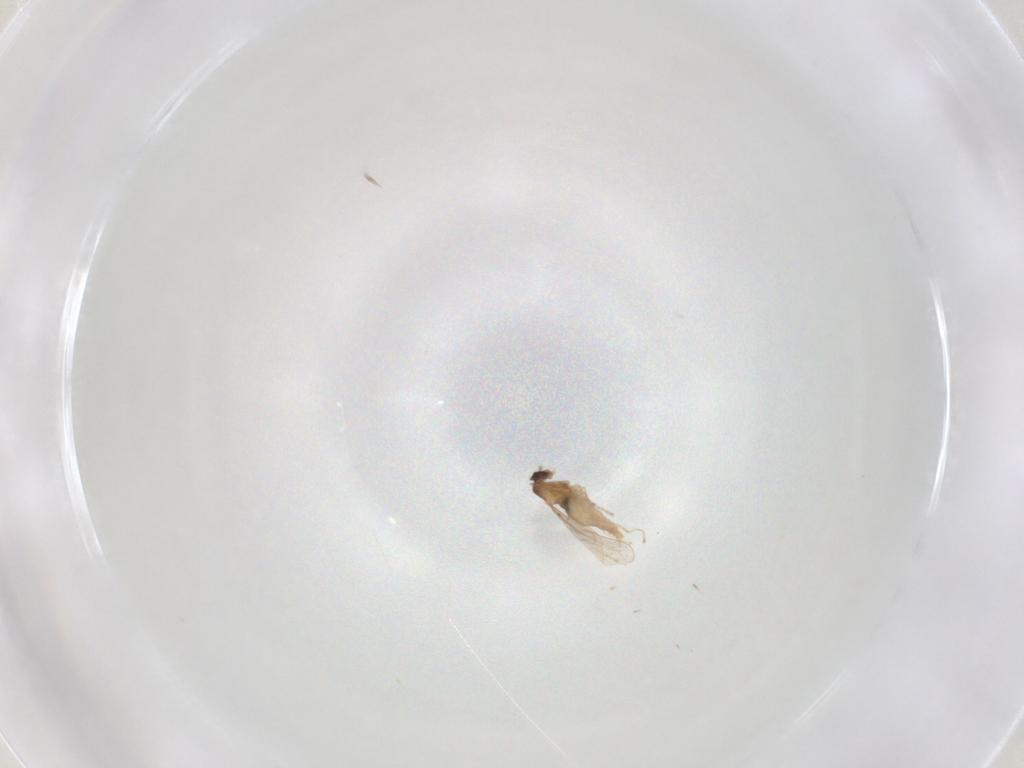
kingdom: Animalia
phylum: Arthropoda
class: Insecta
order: Diptera
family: Cecidomyiidae
